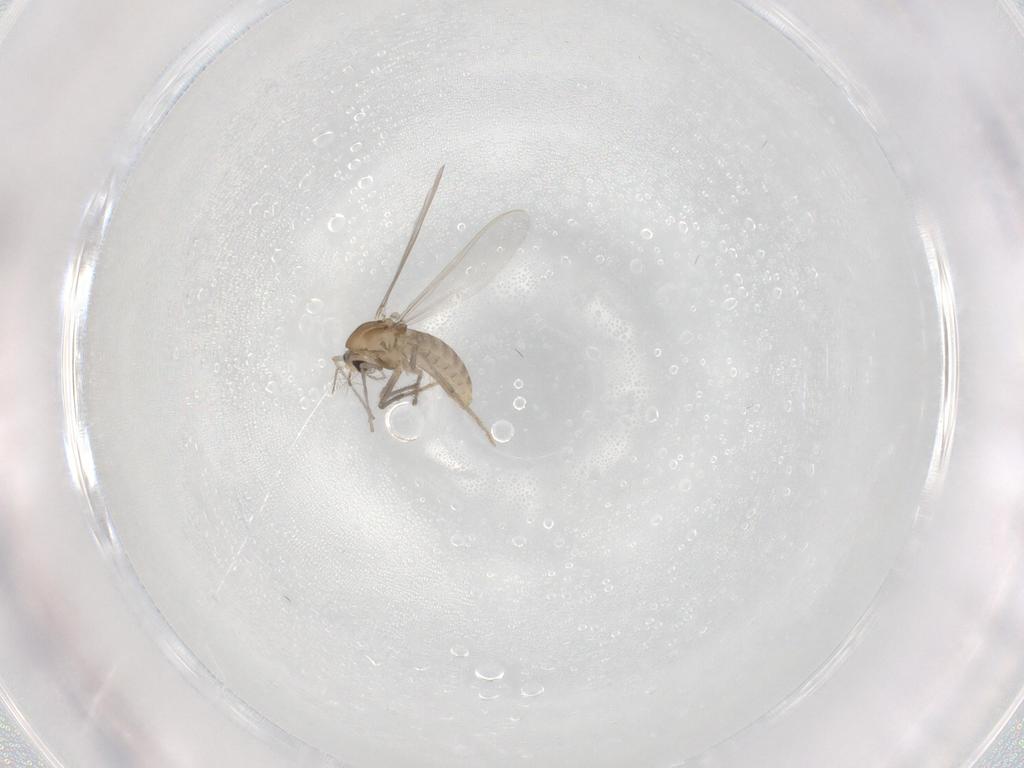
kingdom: Animalia
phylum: Arthropoda
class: Insecta
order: Diptera
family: Chironomidae
